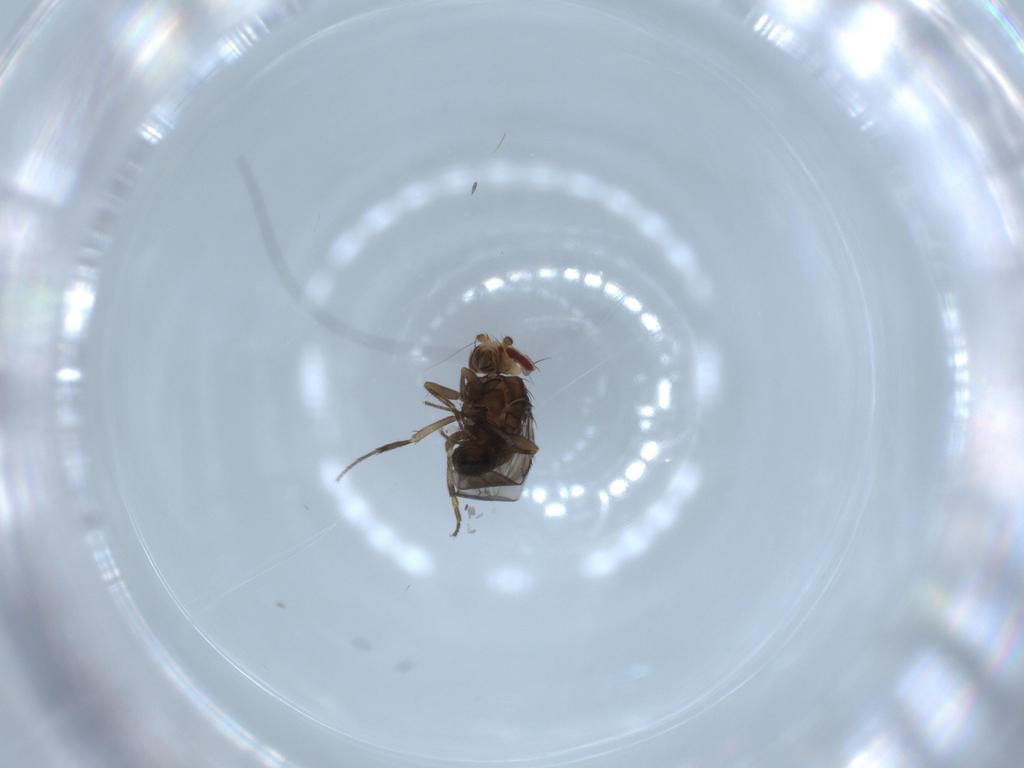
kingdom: Animalia
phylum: Arthropoda
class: Insecta
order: Diptera
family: Sphaeroceridae
